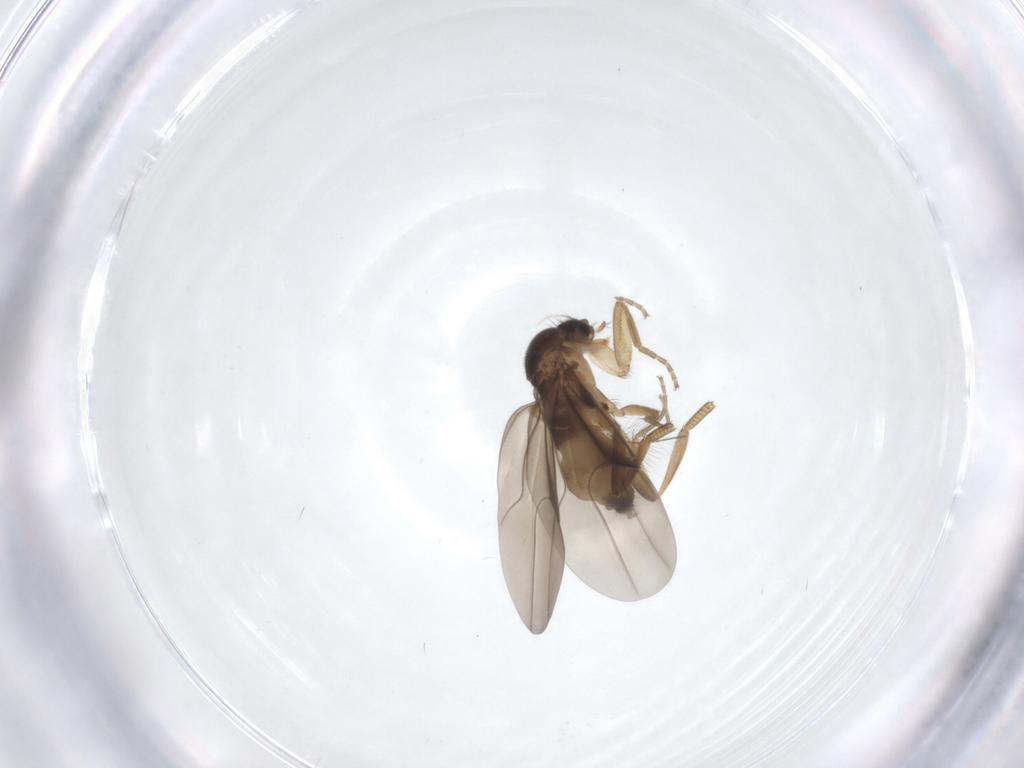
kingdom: Animalia
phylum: Arthropoda
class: Insecta
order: Diptera
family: Phoridae
